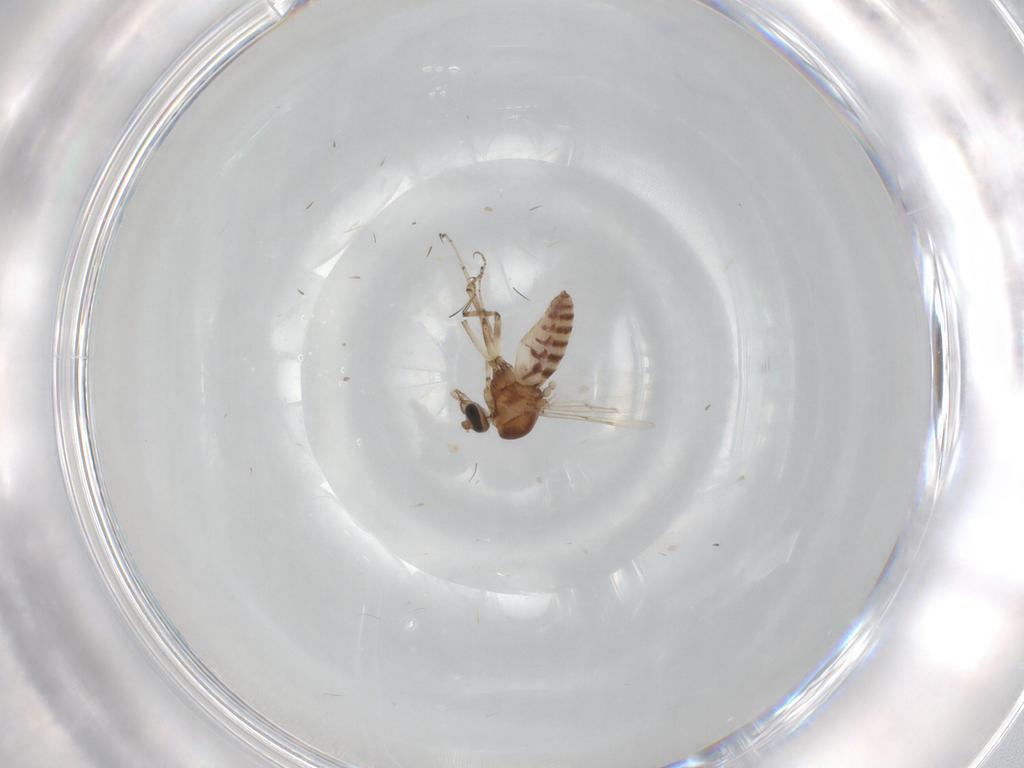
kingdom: Animalia
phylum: Arthropoda
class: Insecta
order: Diptera
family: Ceratopogonidae
